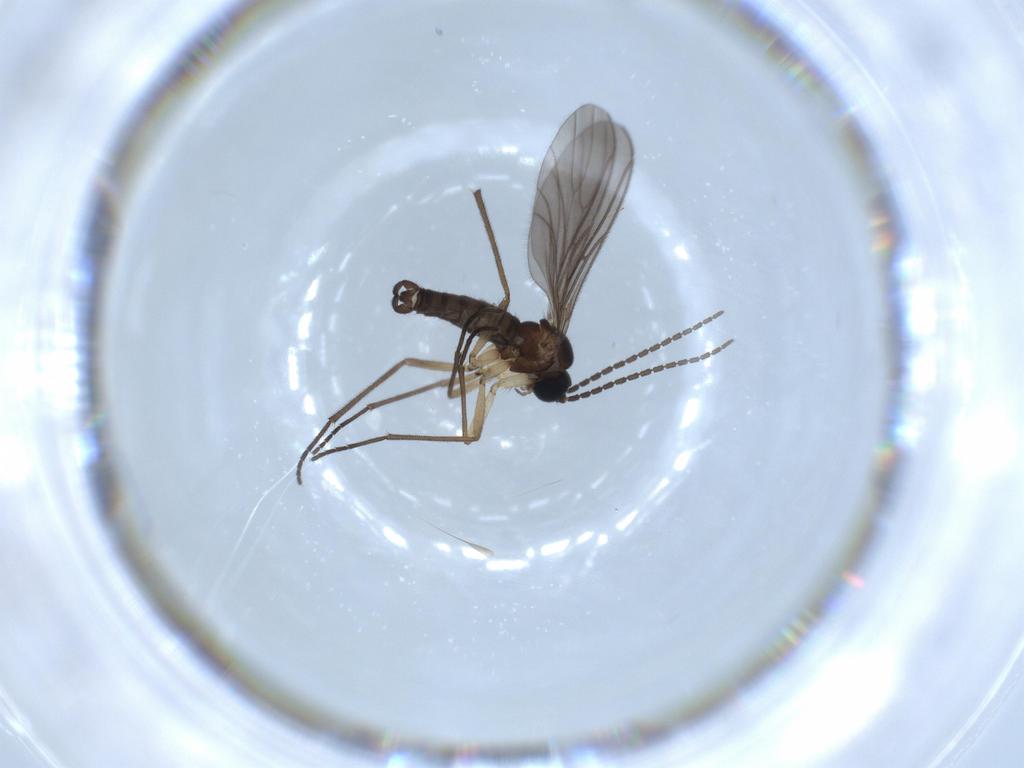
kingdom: Animalia
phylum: Arthropoda
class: Insecta
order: Diptera
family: Sciaridae
